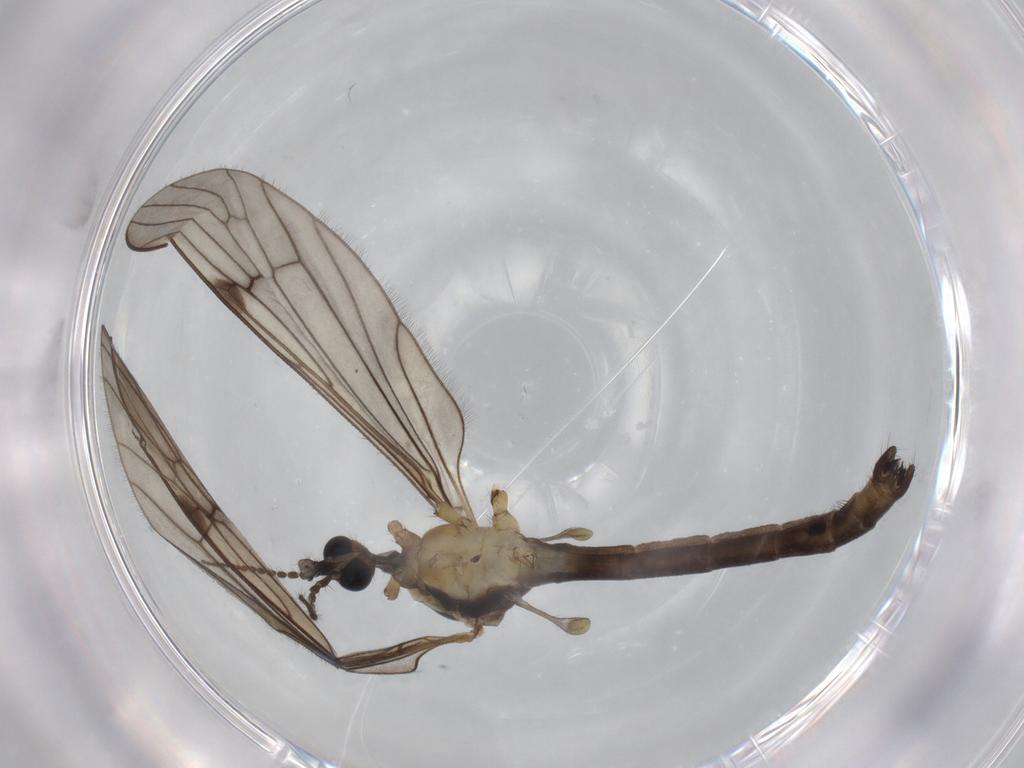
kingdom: Animalia
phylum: Arthropoda
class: Insecta
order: Diptera
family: Limoniidae
